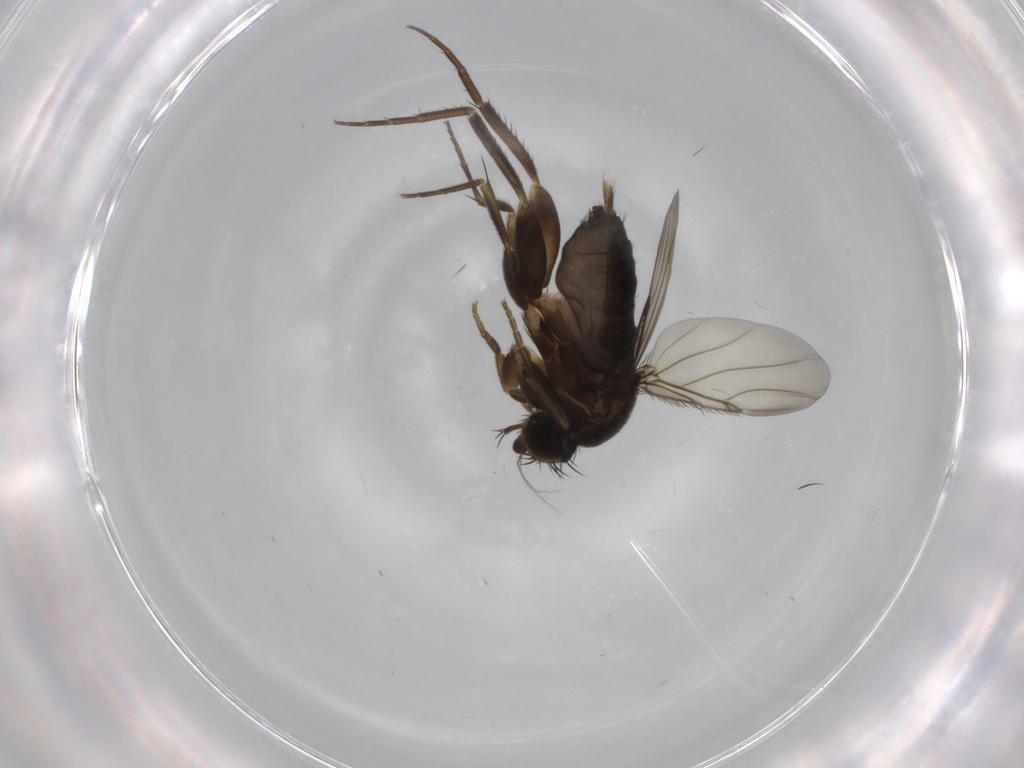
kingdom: Animalia
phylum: Arthropoda
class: Insecta
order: Diptera
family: Phoridae
